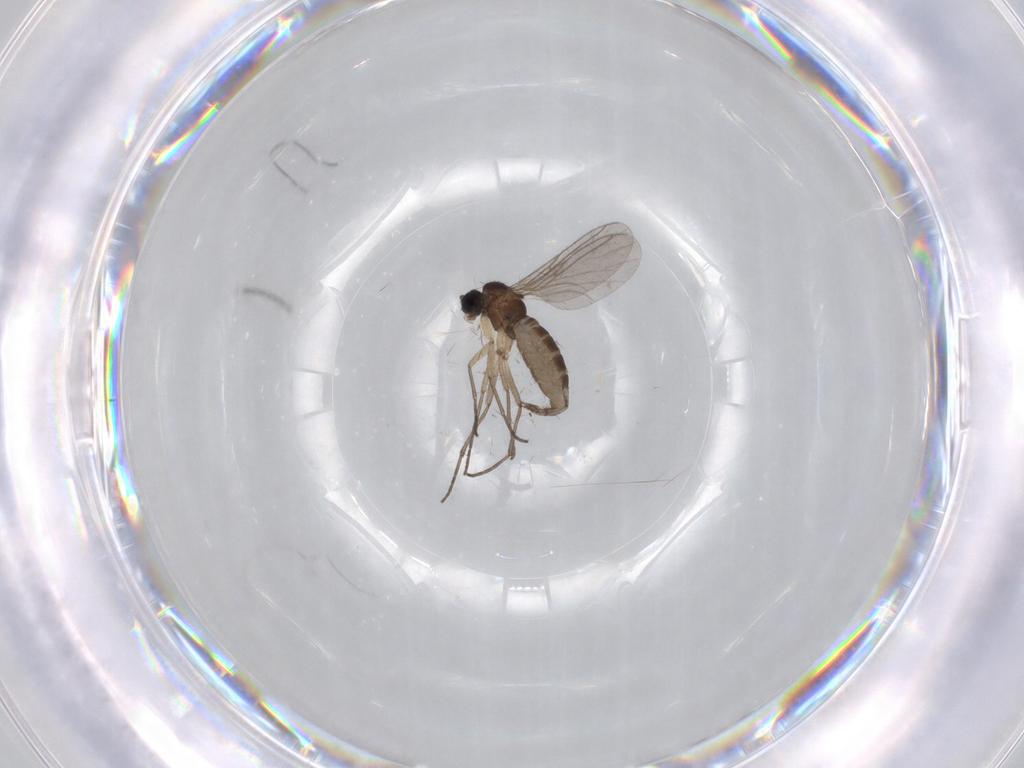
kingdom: Animalia
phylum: Arthropoda
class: Insecta
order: Diptera
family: Sciaridae
